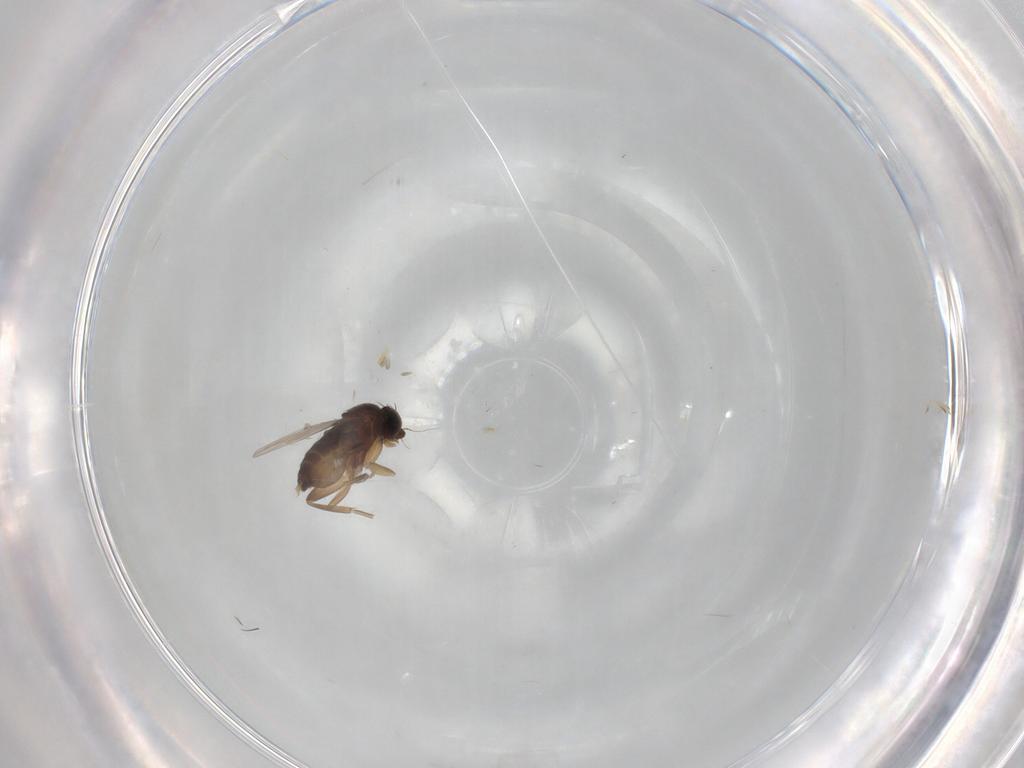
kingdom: Animalia
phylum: Arthropoda
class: Insecta
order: Diptera
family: Phoridae
